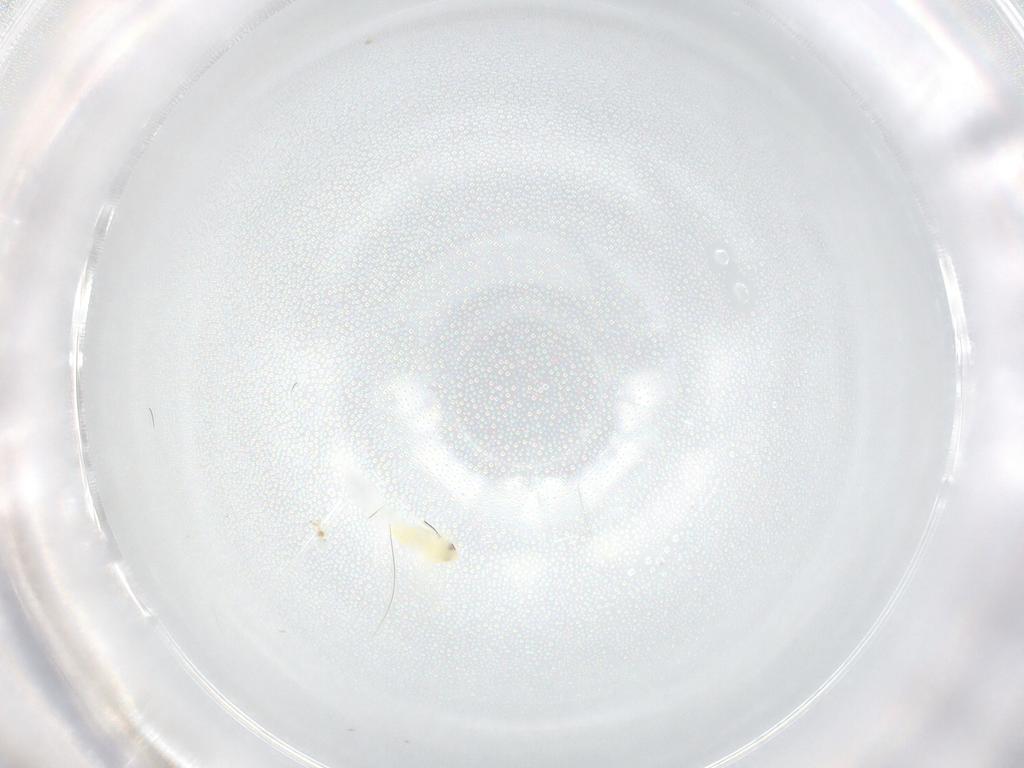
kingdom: Animalia
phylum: Arthropoda
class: Insecta
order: Hemiptera
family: Aleyrodidae
